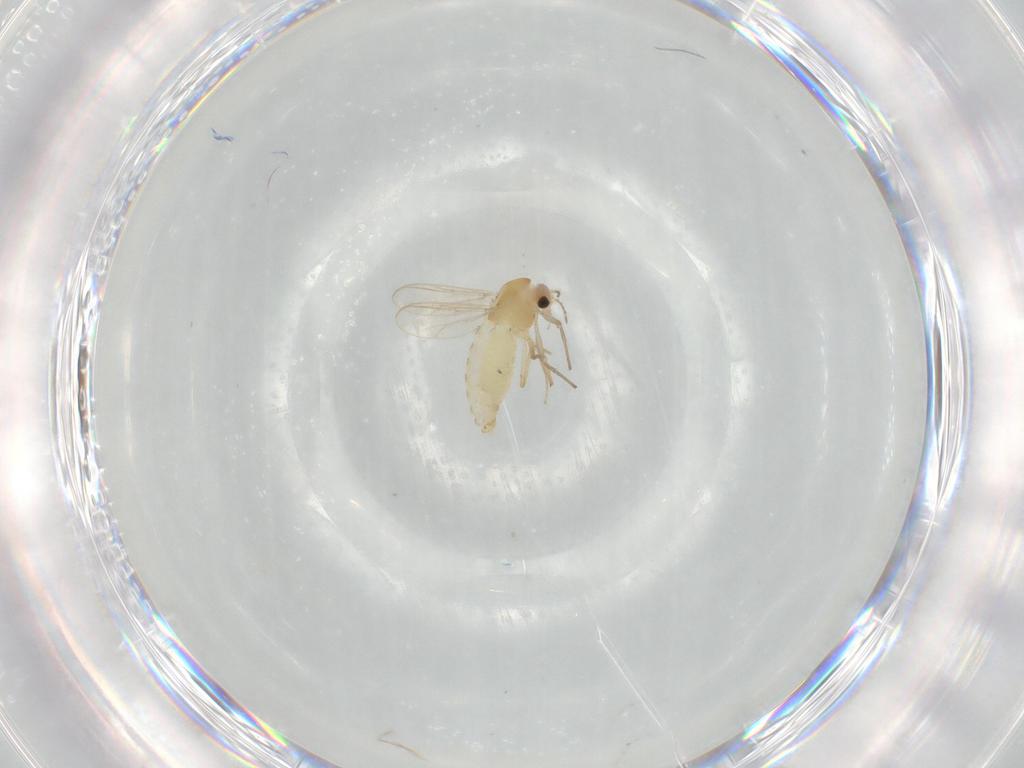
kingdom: Animalia
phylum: Arthropoda
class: Insecta
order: Diptera
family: Chironomidae
